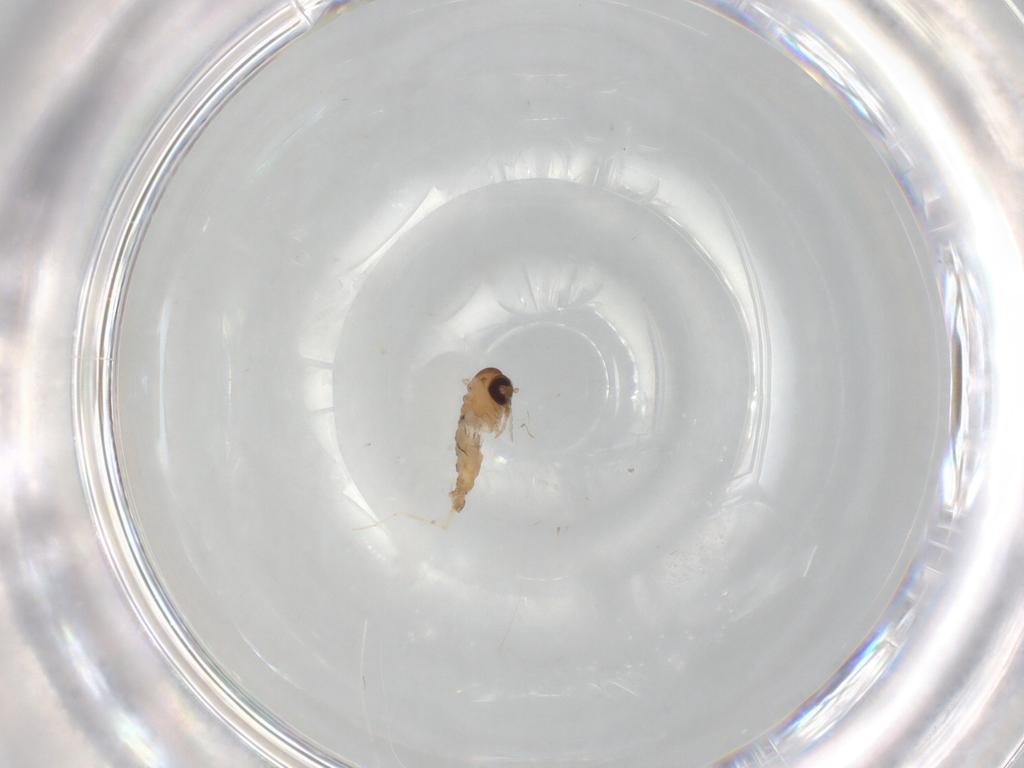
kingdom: Animalia
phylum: Arthropoda
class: Insecta
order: Diptera
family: Cecidomyiidae
